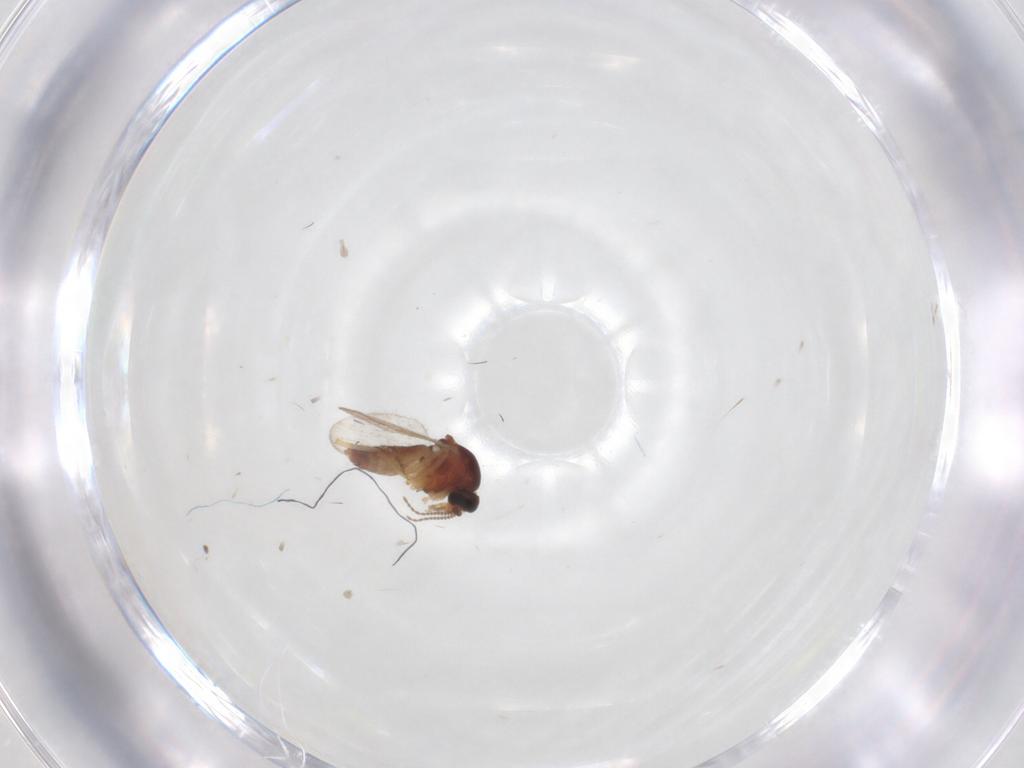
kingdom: Animalia
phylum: Arthropoda
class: Insecta
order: Diptera
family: Ceratopogonidae
